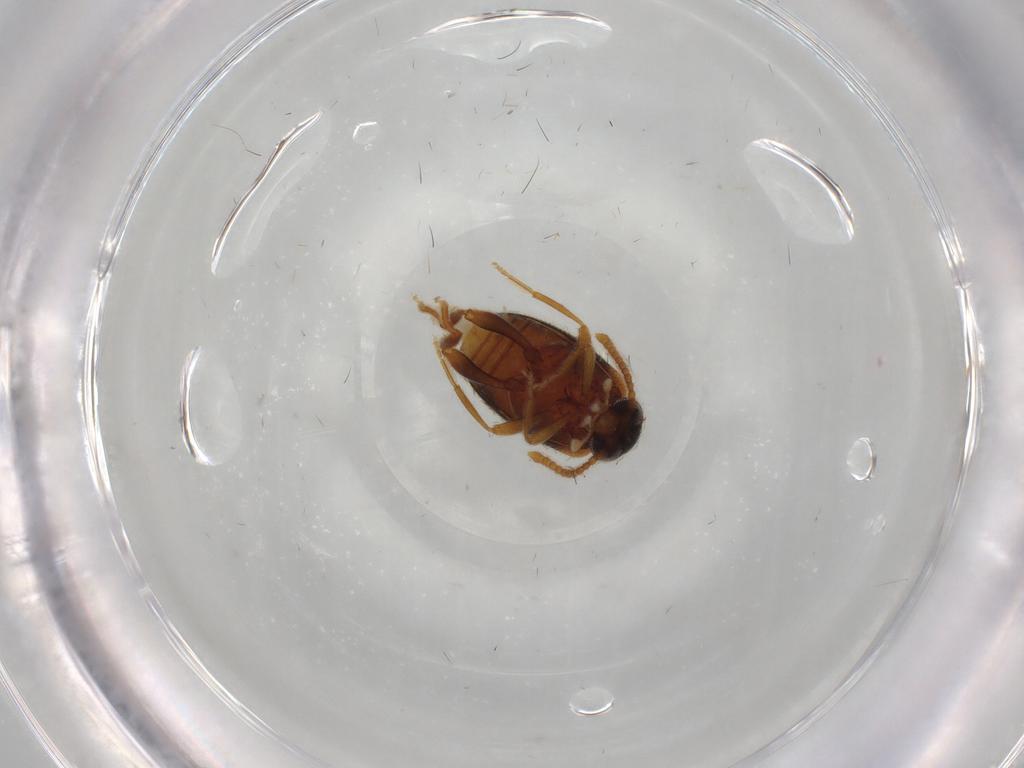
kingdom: Animalia
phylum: Arthropoda
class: Insecta
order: Coleoptera
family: Aderidae
